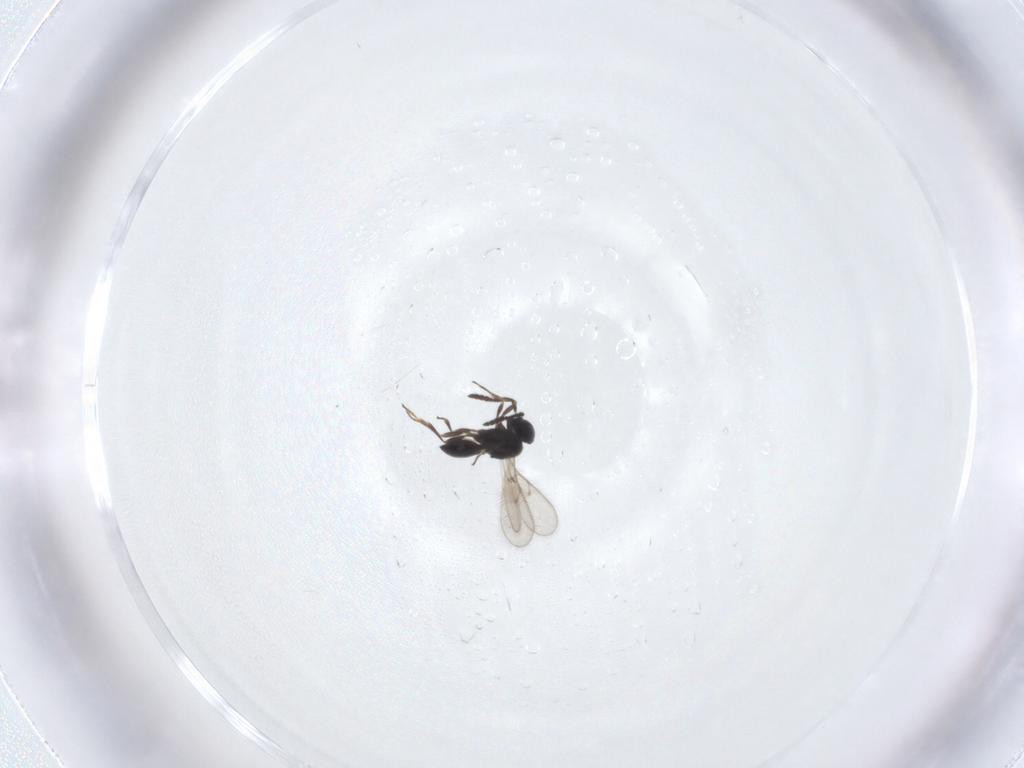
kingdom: Animalia
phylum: Arthropoda
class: Insecta
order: Hymenoptera
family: Scelionidae
